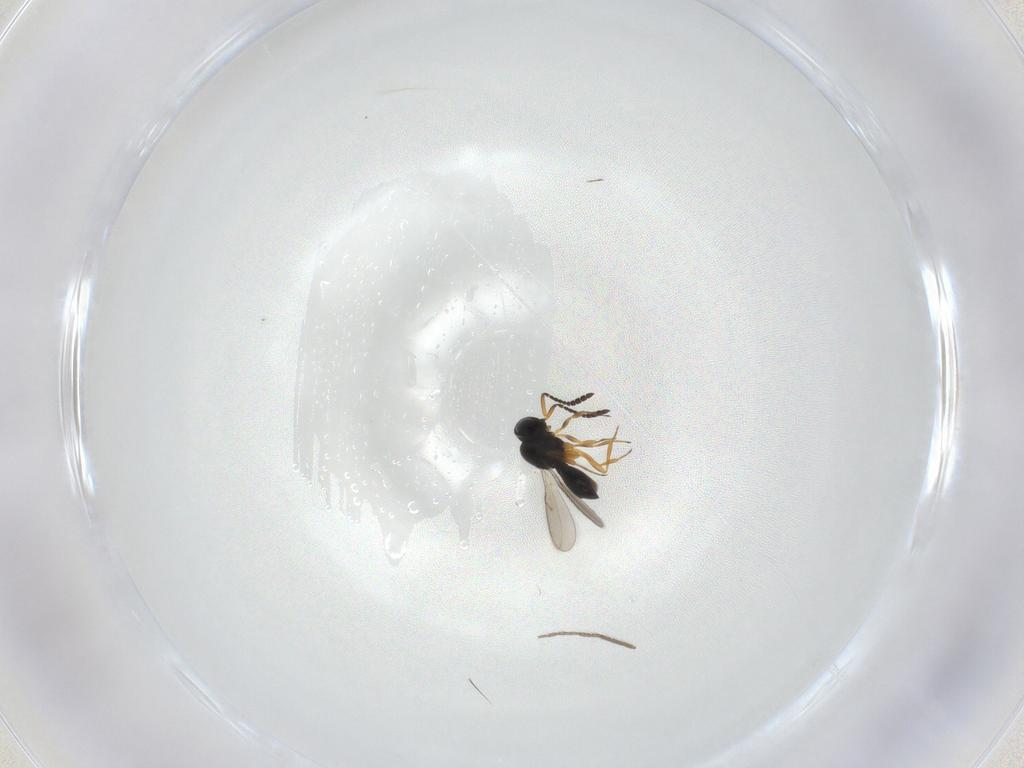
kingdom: Animalia
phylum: Arthropoda
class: Insecta
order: Hymenoptera
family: Scelionidae
